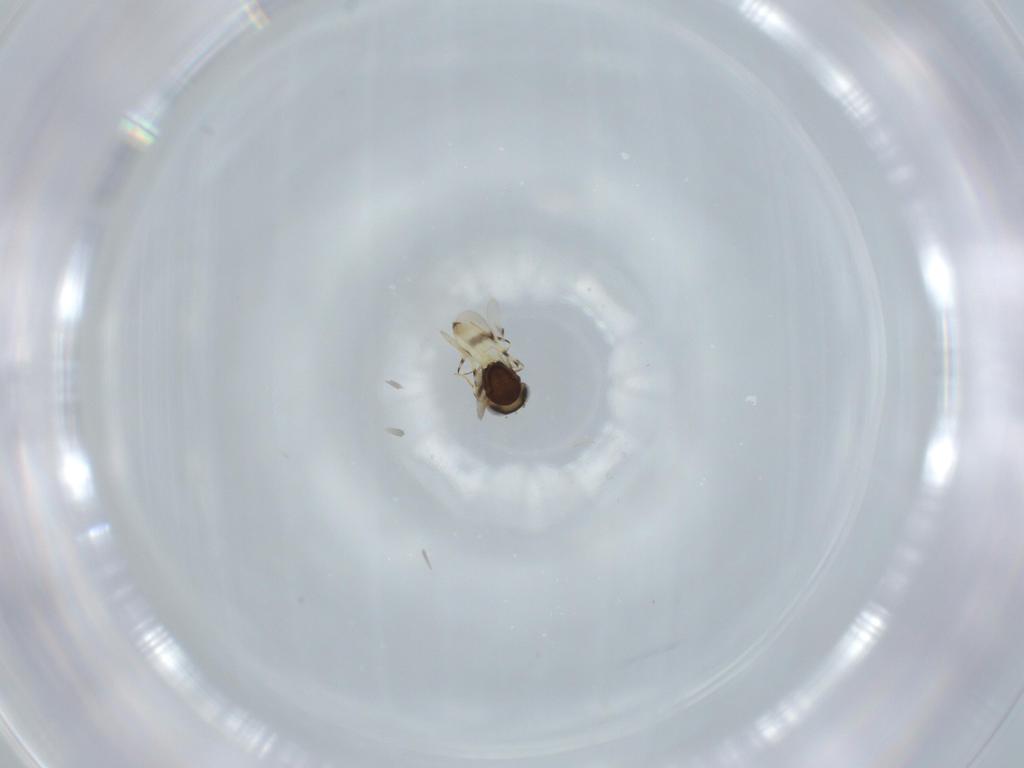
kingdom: Animalia
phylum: Arthropoda
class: Insecta
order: Hymenoptera
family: Scelionidae
